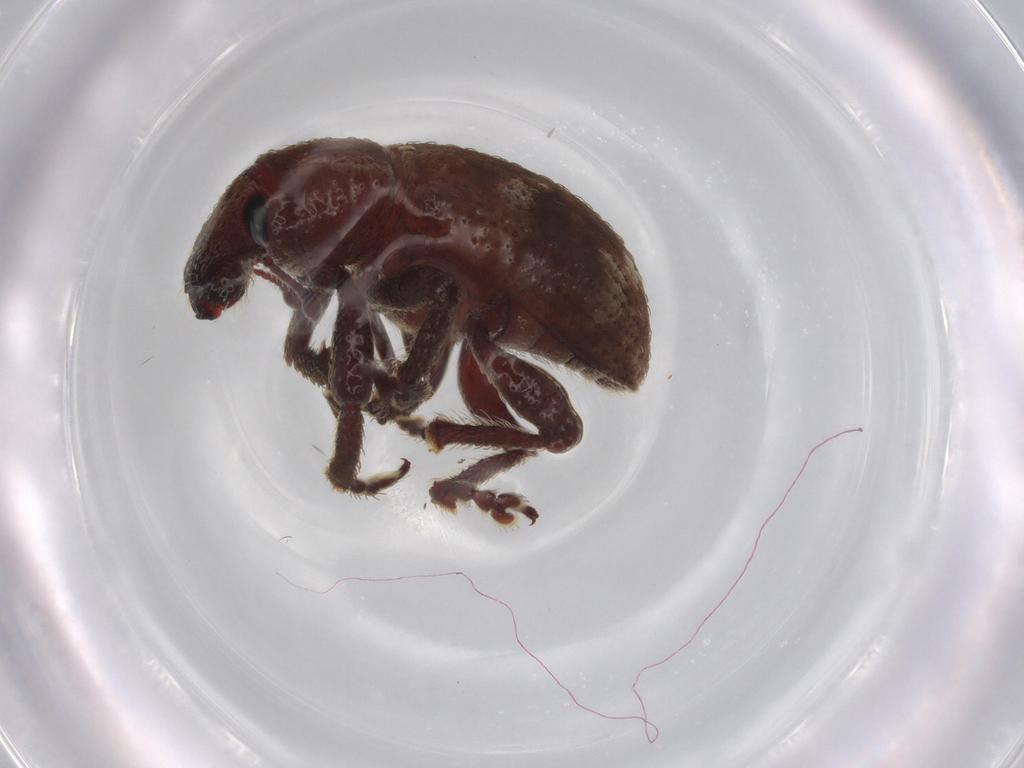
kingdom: Animalia
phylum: Arthropoda
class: Insecta
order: Coleoptera
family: Curculionidae
